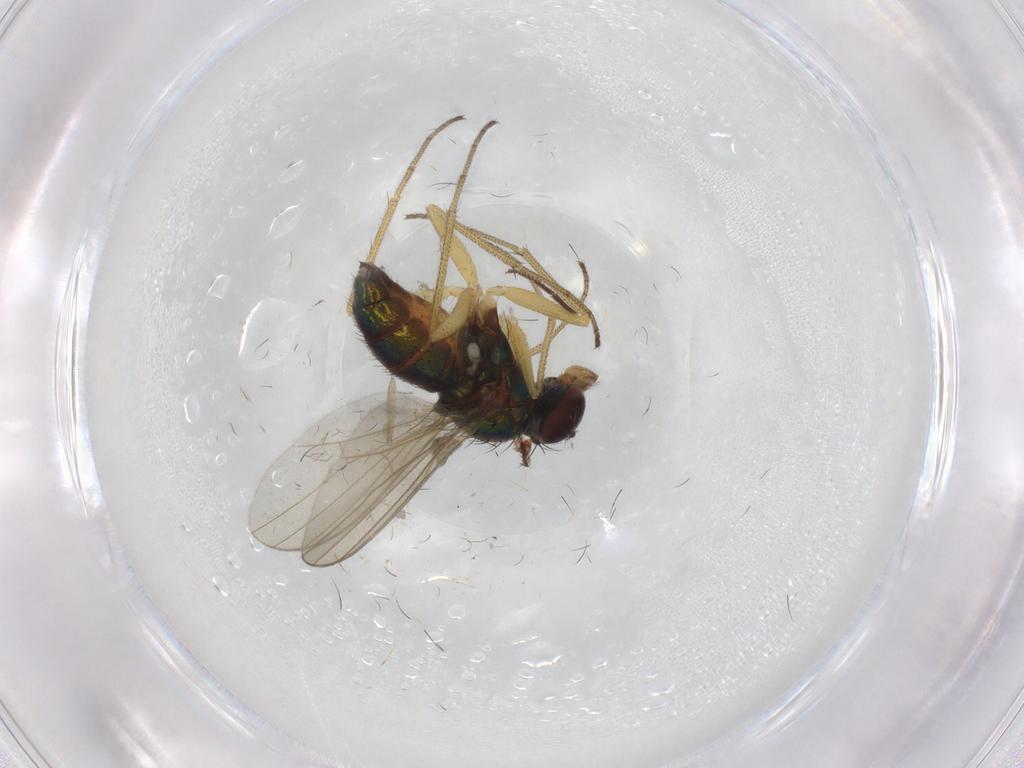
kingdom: Animalia
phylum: Arthropoda
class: Insecta
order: Diptera
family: Dolichopodidae
